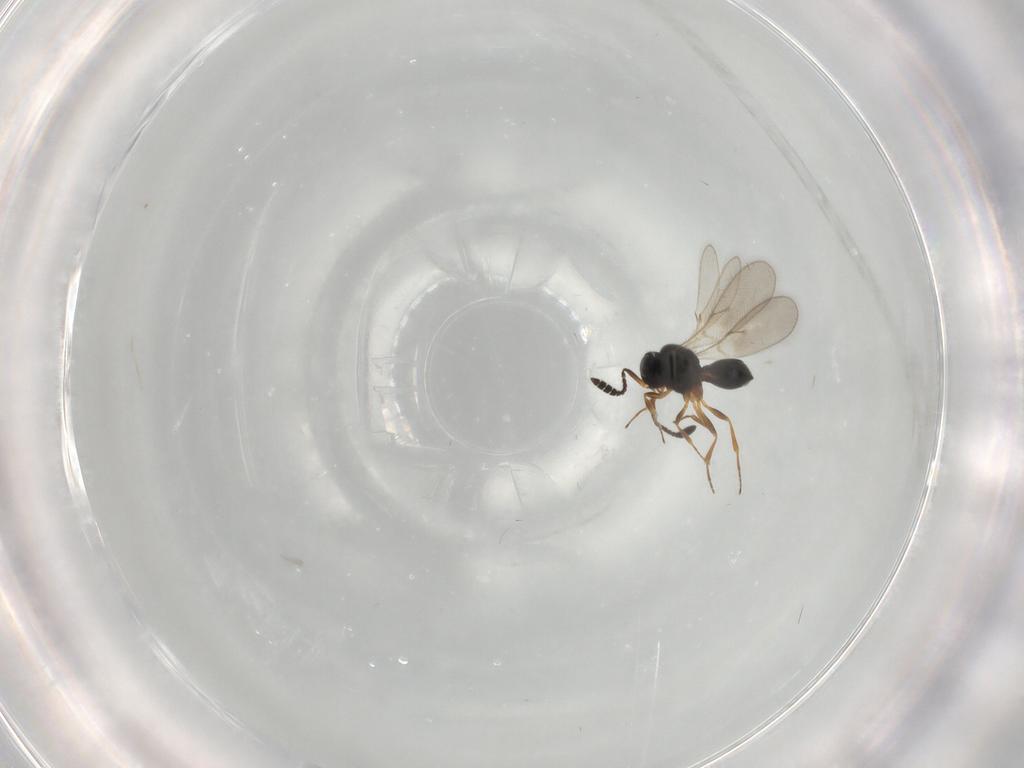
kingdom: Animalia
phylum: Arthropoda
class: Insecta
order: Hymenoptera
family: Scelionidae
